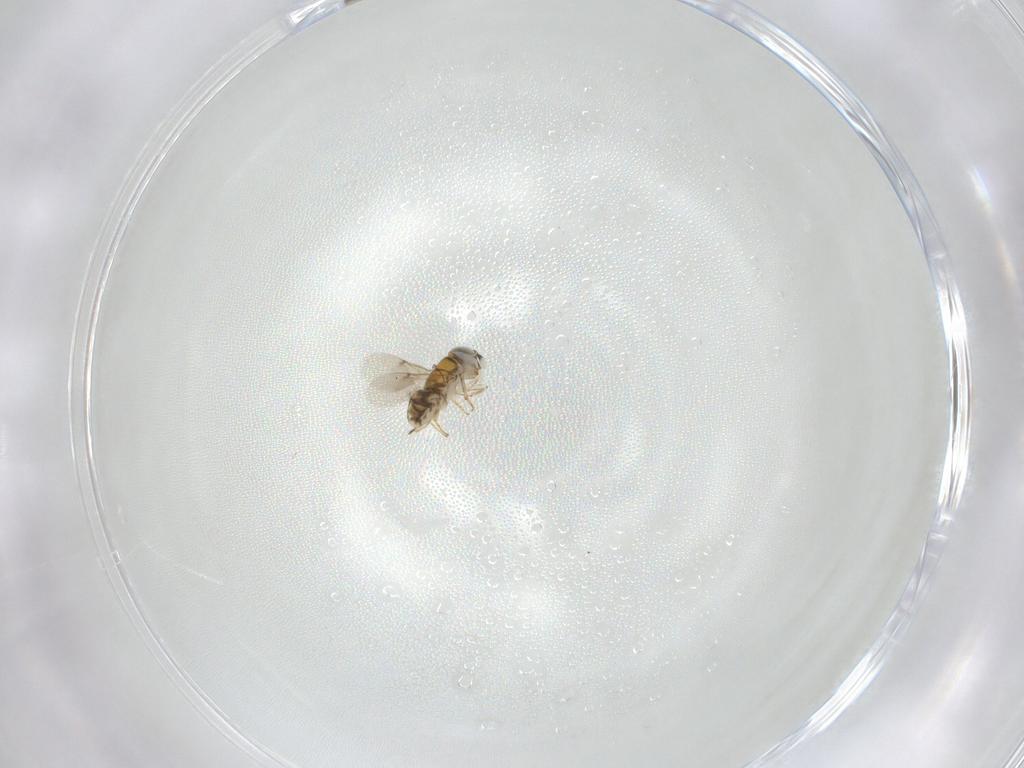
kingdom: Animalia
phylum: Arthropoda
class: Insecta
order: Hymenoptera
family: Encyrtidae
